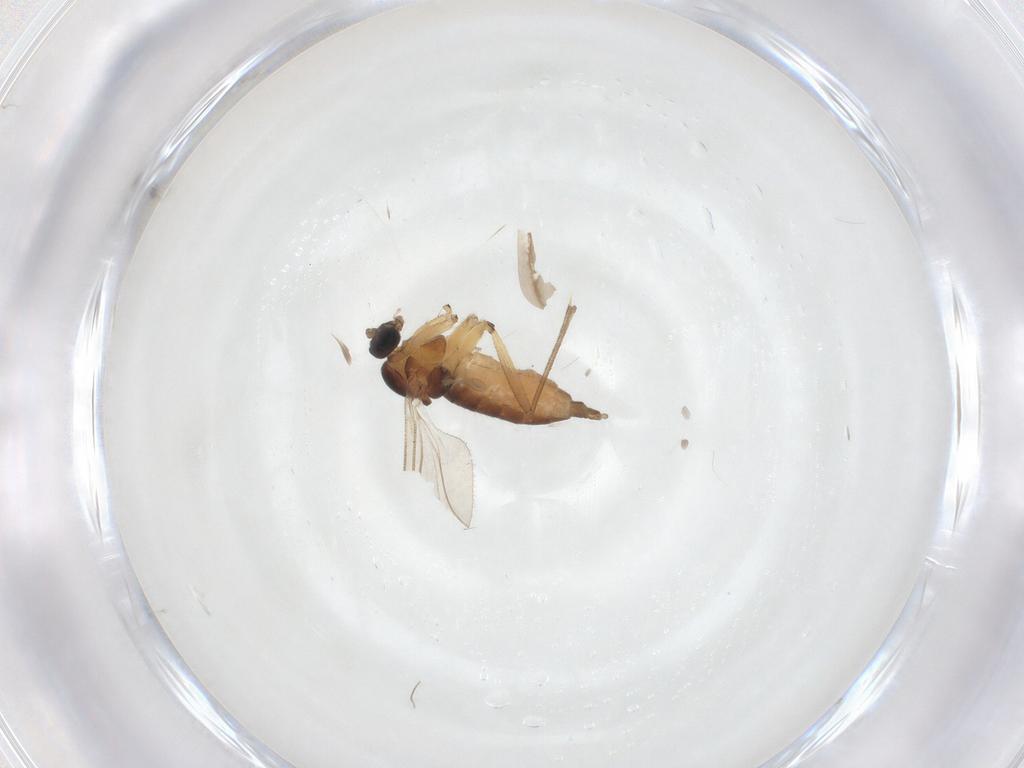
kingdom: Animalia
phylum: Arthropoda
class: Insecta
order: Diptera
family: Sciaridae
